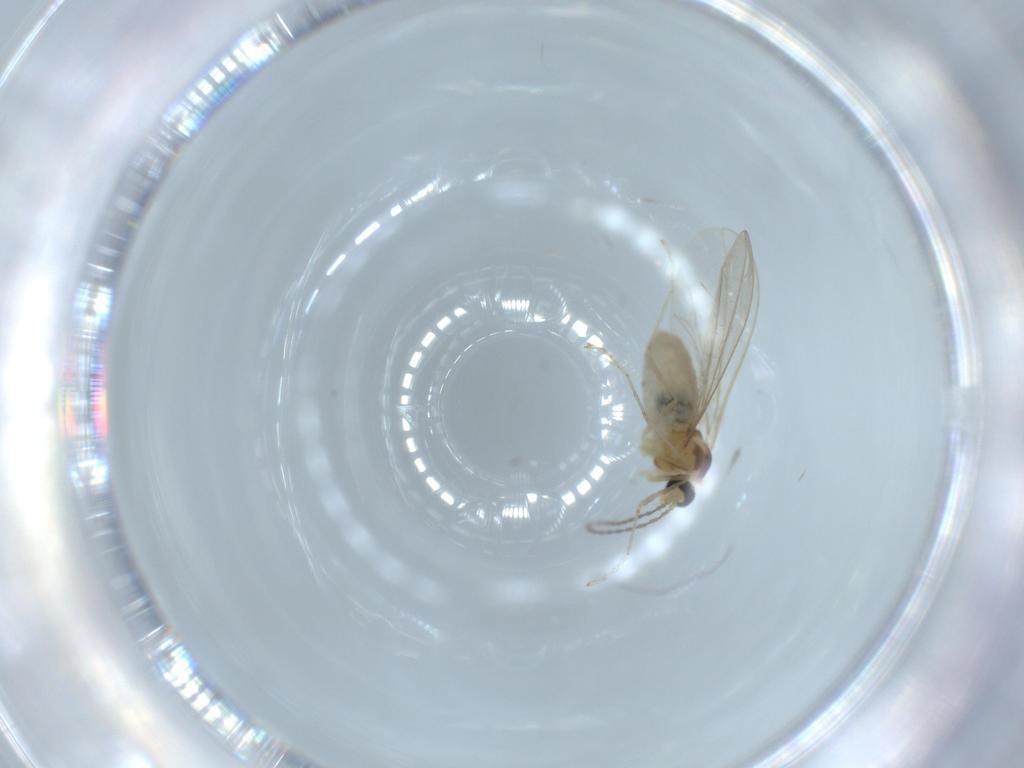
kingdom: Animalia
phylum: Arthropoda
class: Insecta
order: Diptera
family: Cecidomyiidae
